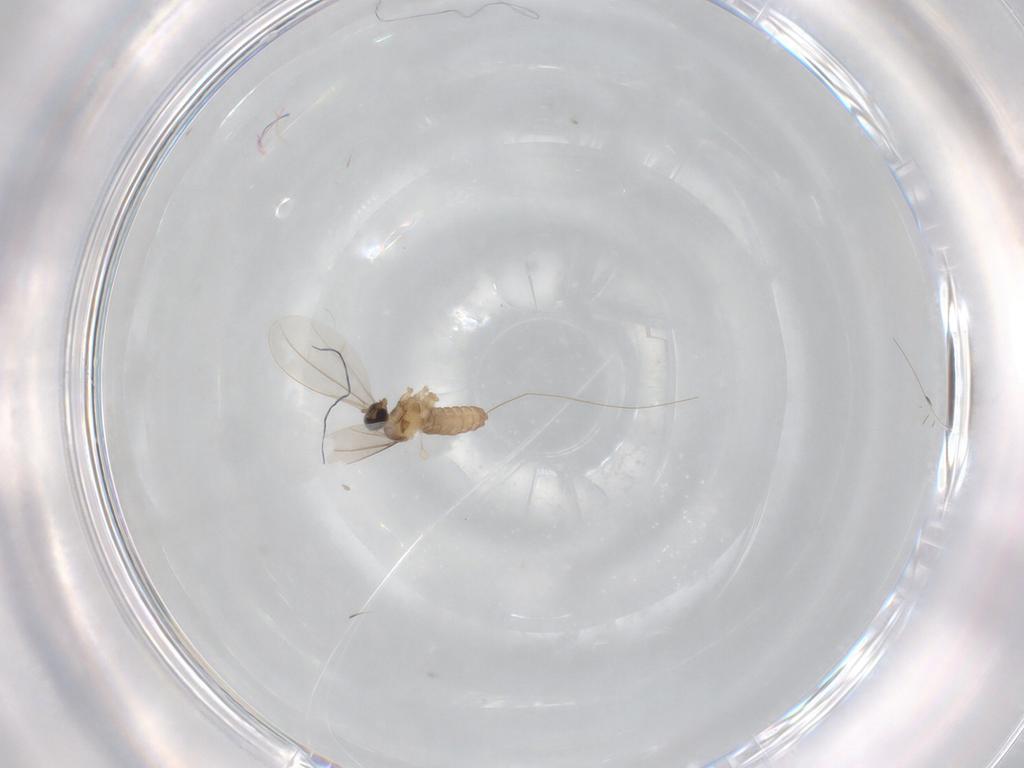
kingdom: Animalia
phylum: Arthropoda
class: Insecta
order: Diptera
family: Cecidomyiidae
